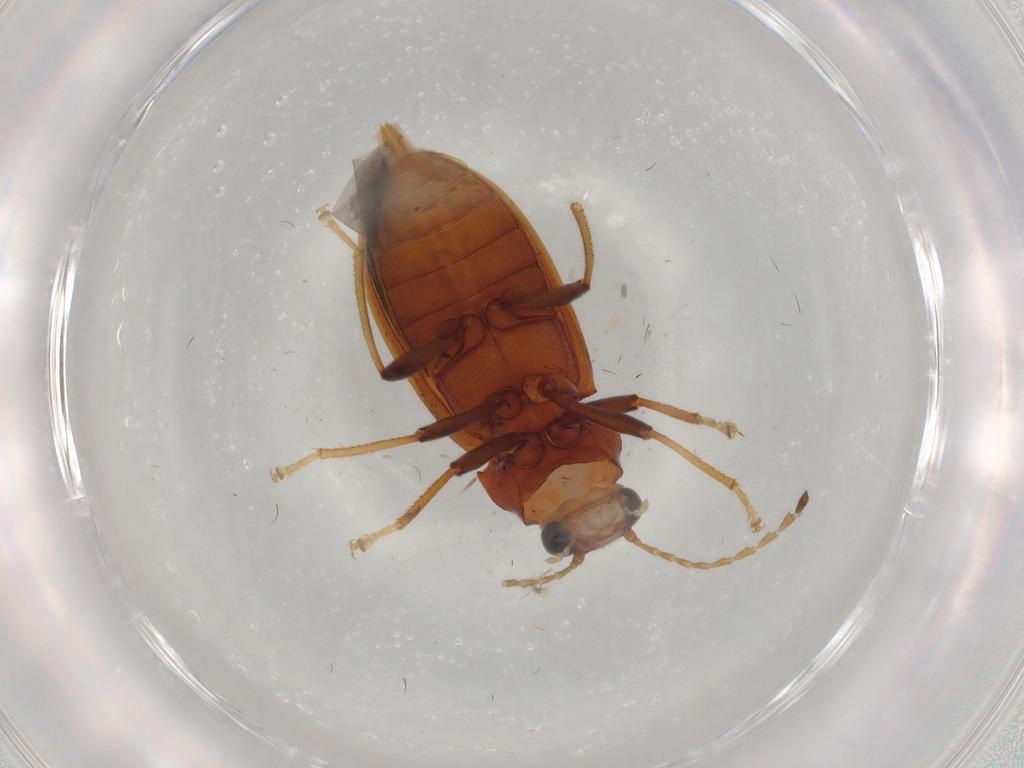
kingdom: Animalia
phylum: Arthropoda
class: Insecta
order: Coleoptera
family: Ptilodactylidae
